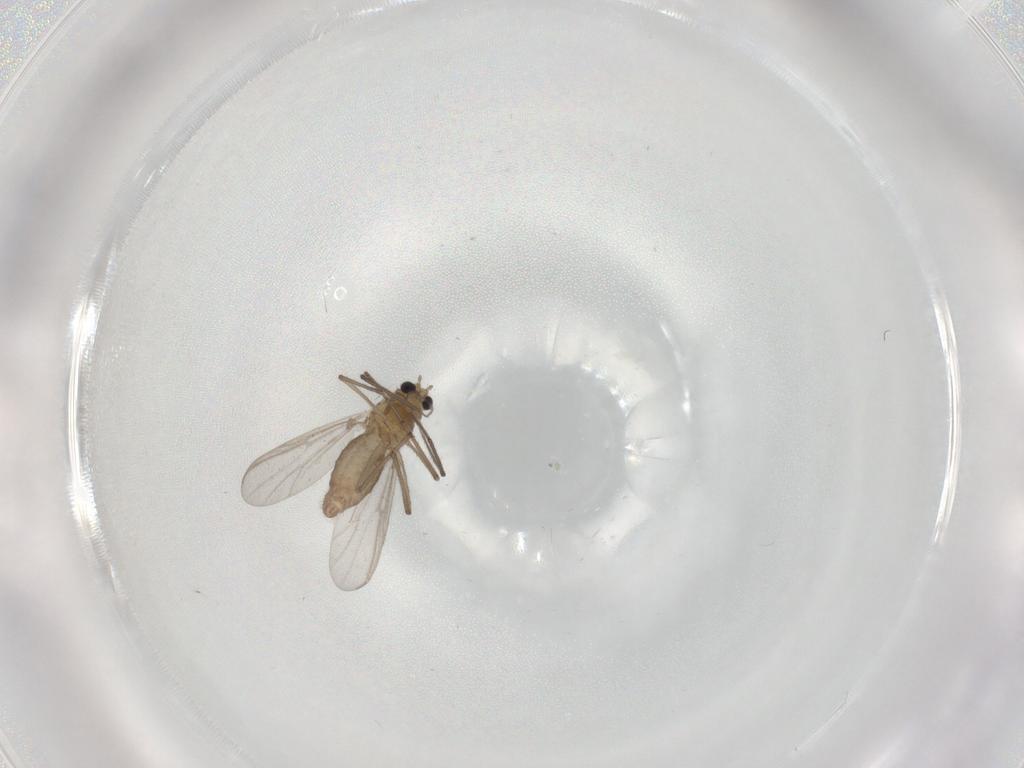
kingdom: Animalia
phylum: Arthropoda
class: Insecta
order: Diptera
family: Chironomidae
